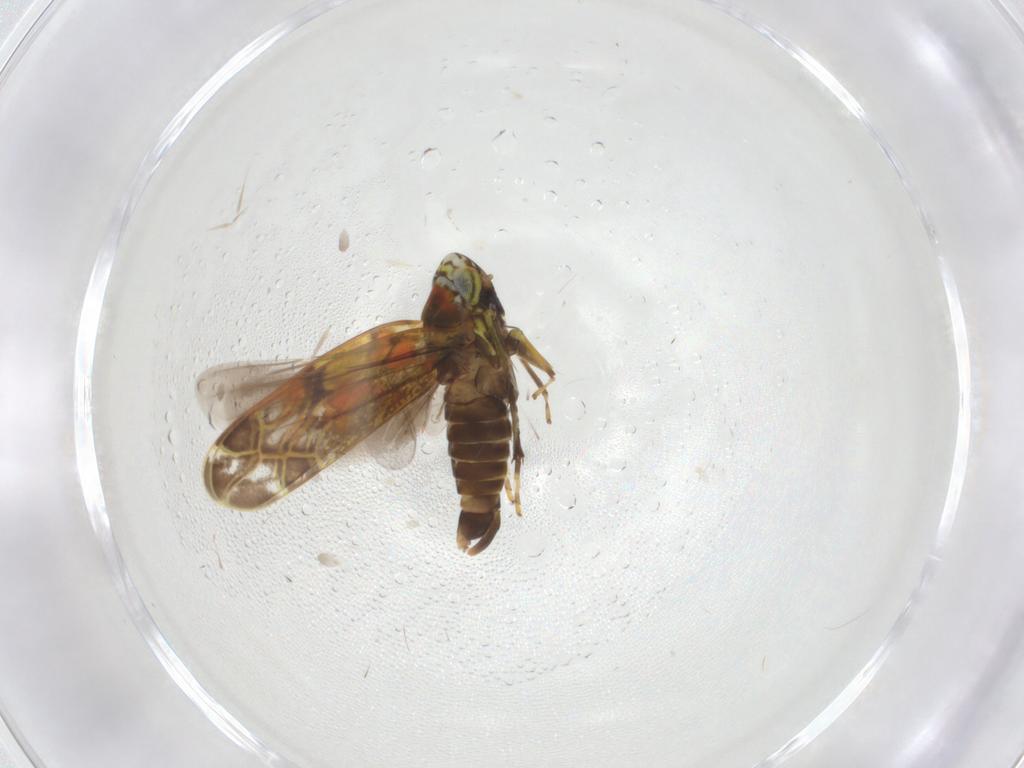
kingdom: Animalia
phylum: Arthropoda
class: Insecta
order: Hemiptera
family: Cicadellidae
